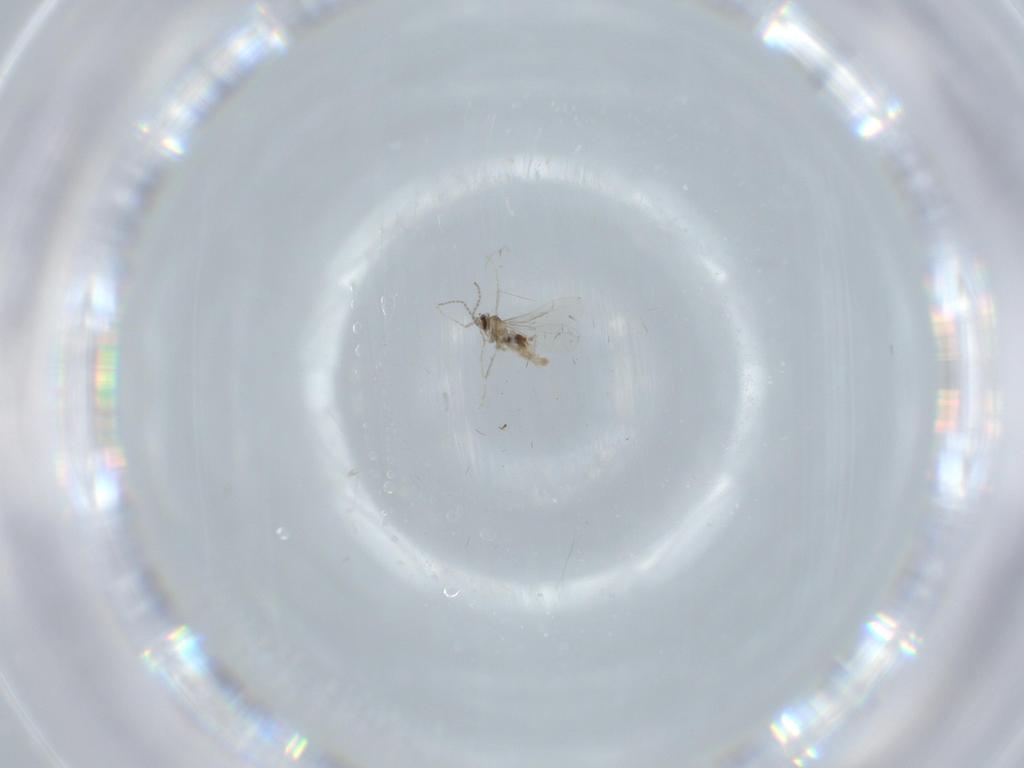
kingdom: Animalia
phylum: Arthropoda
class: Insecta
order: Diptera
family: Cecidomyiidae
